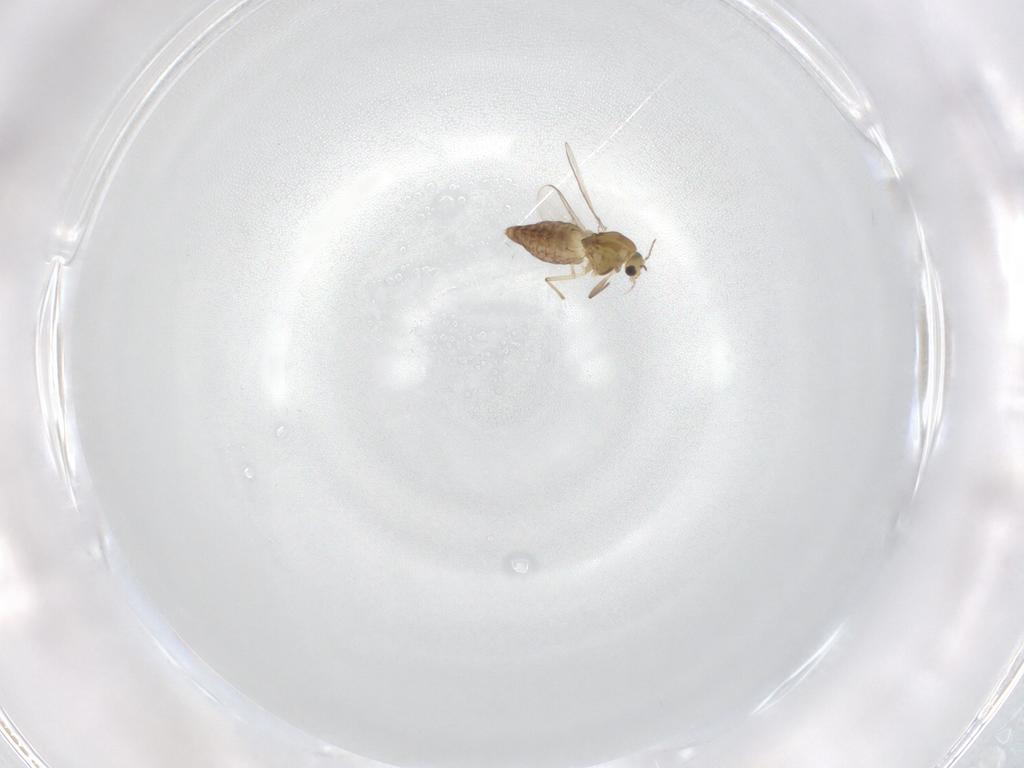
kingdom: Animalia
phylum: Arthropoda
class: Insecta
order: Diptera
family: Chironomidae
